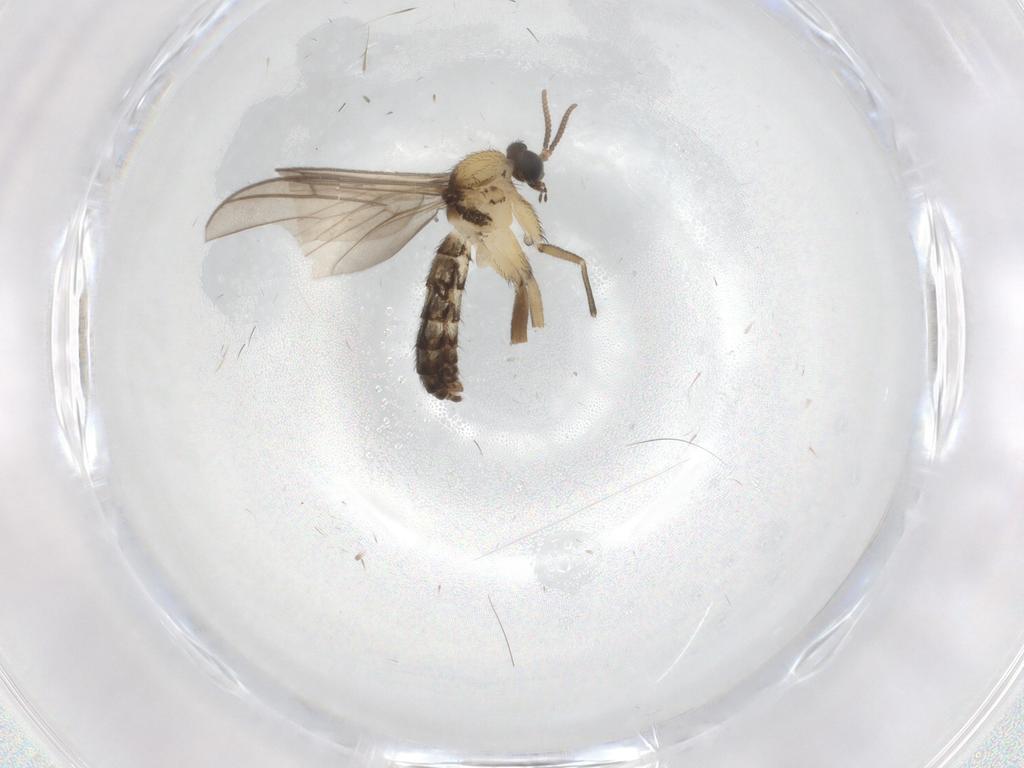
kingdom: Animalia
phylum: Arthropoda
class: Insecta
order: Diptera
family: Keroplatidae
